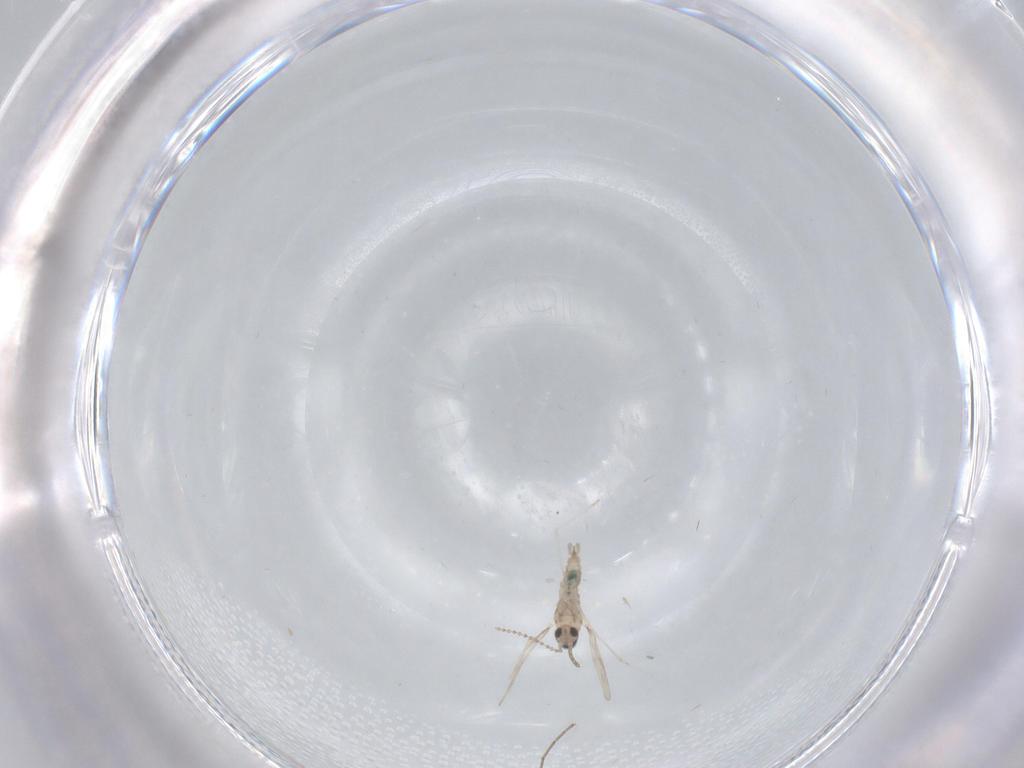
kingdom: Animalia
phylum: Arthropoda
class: Insecta
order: Diptera
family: Cecidomyiidae
